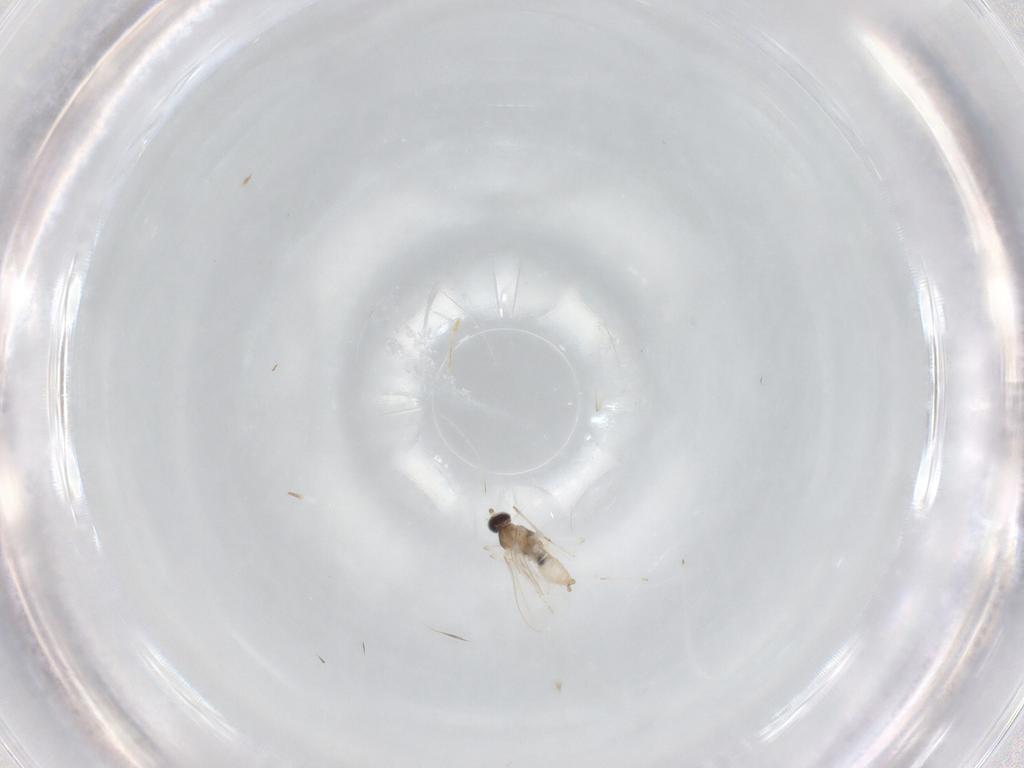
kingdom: Animalia
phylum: Arthropoda
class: Insecta
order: Diptera
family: Cecidomyiidae
